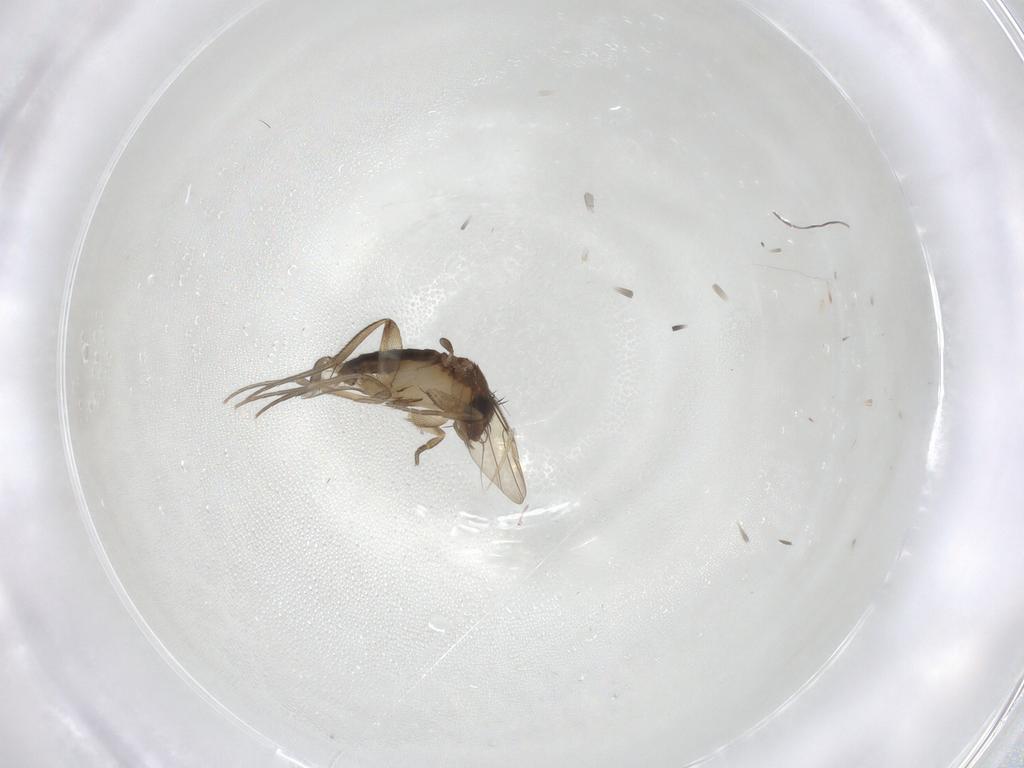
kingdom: Animalia
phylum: Arthropoda
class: Insecta
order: Diptera
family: Phoridae
